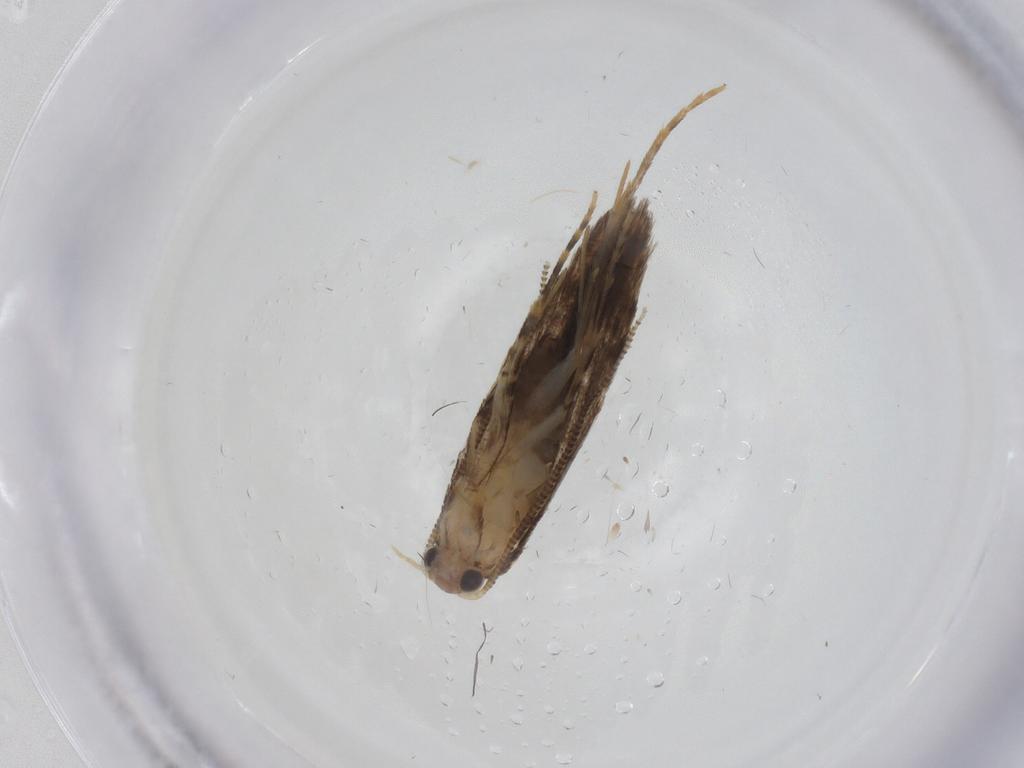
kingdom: Animalia
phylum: Arthropoda
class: Insecta
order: Lepidoptera
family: Tineidae
